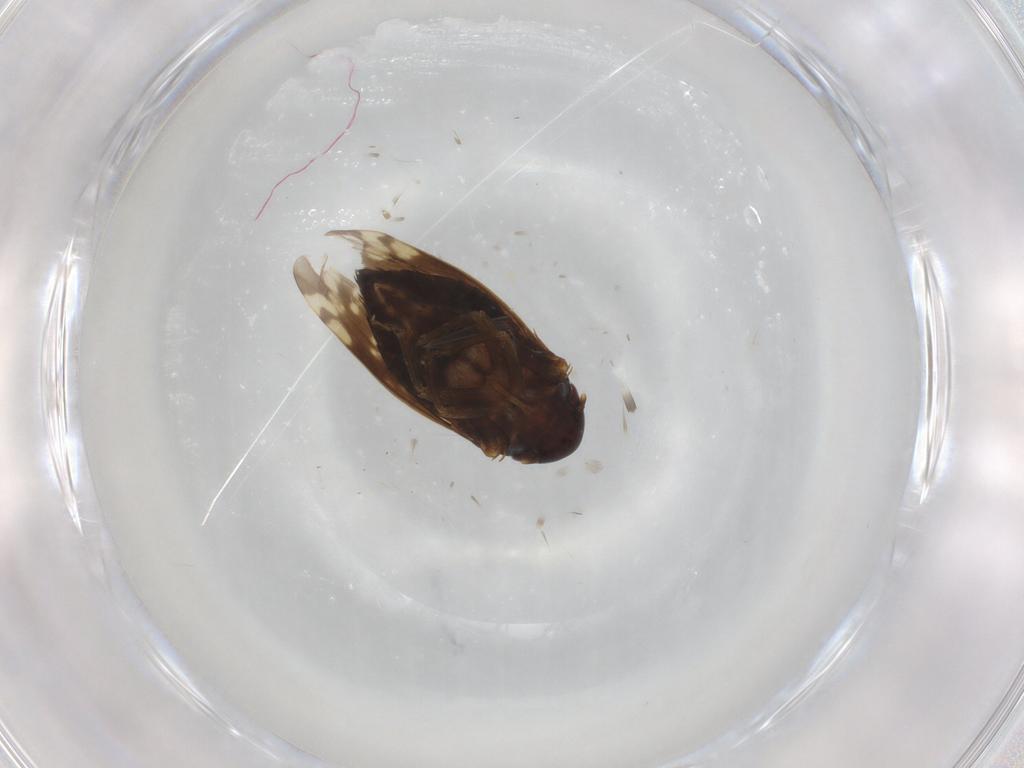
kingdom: Animalia
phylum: Arthropoda
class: Insecta
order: Hemiptera
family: Cicadellidae
